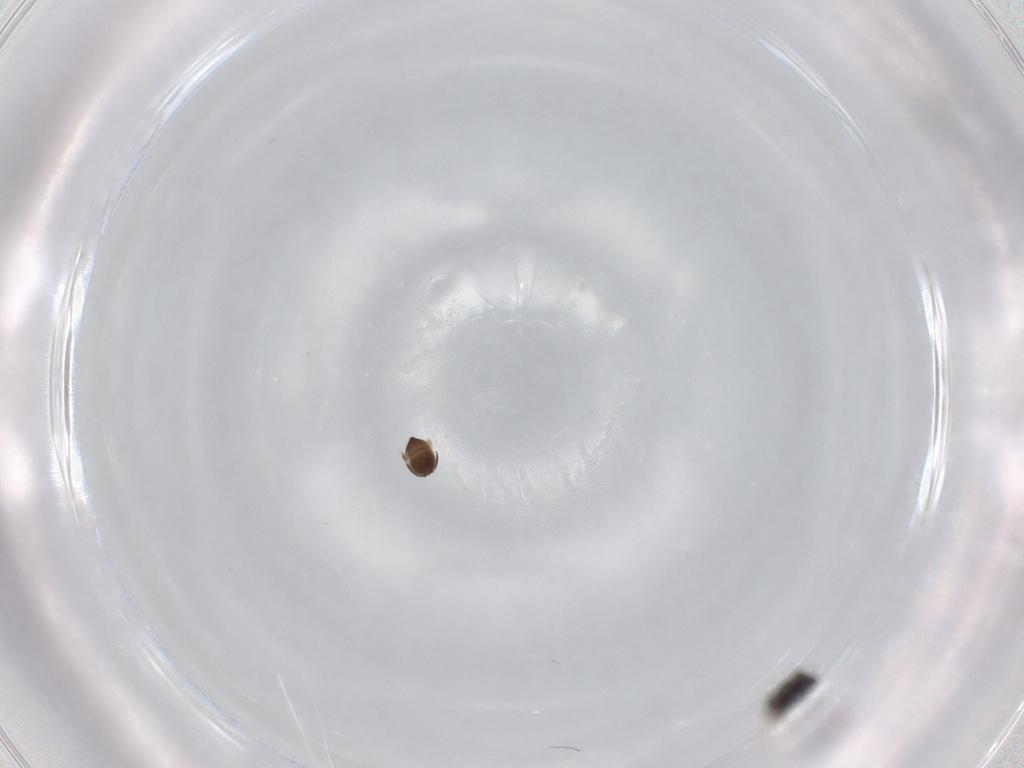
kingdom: Animalia
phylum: Arthropoda
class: Insecta
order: Hymenoptera
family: Scelionidae
